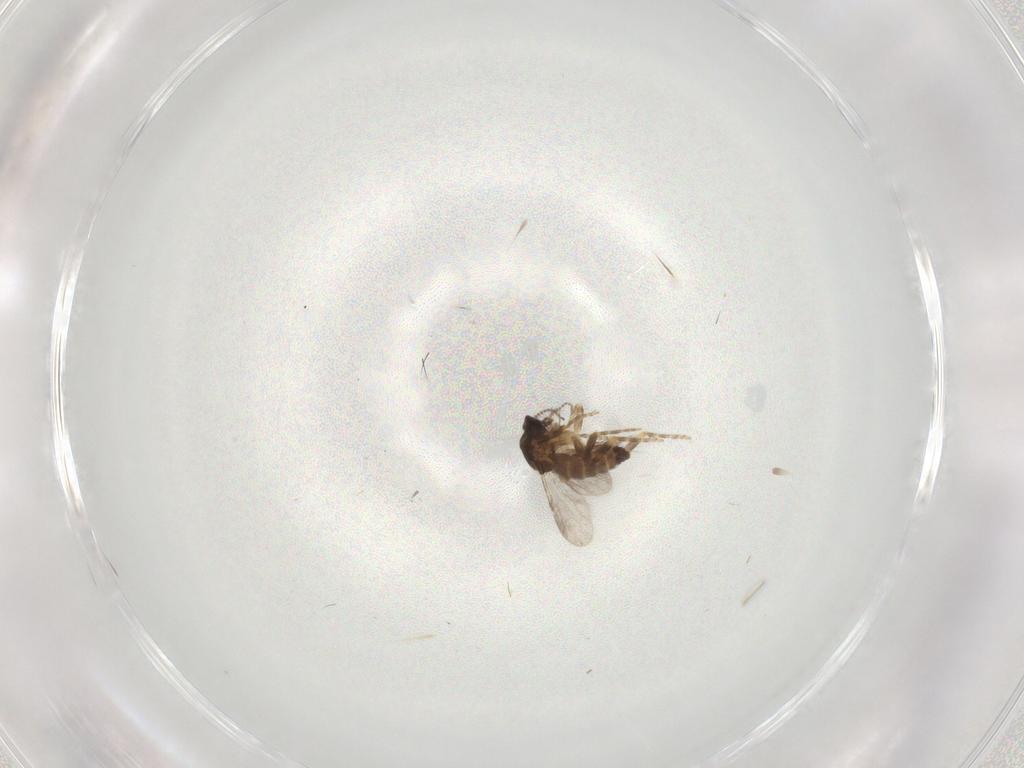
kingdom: Animalia
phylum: Arthropoda
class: Insecta
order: Diptera
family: Ceratopogonidae
